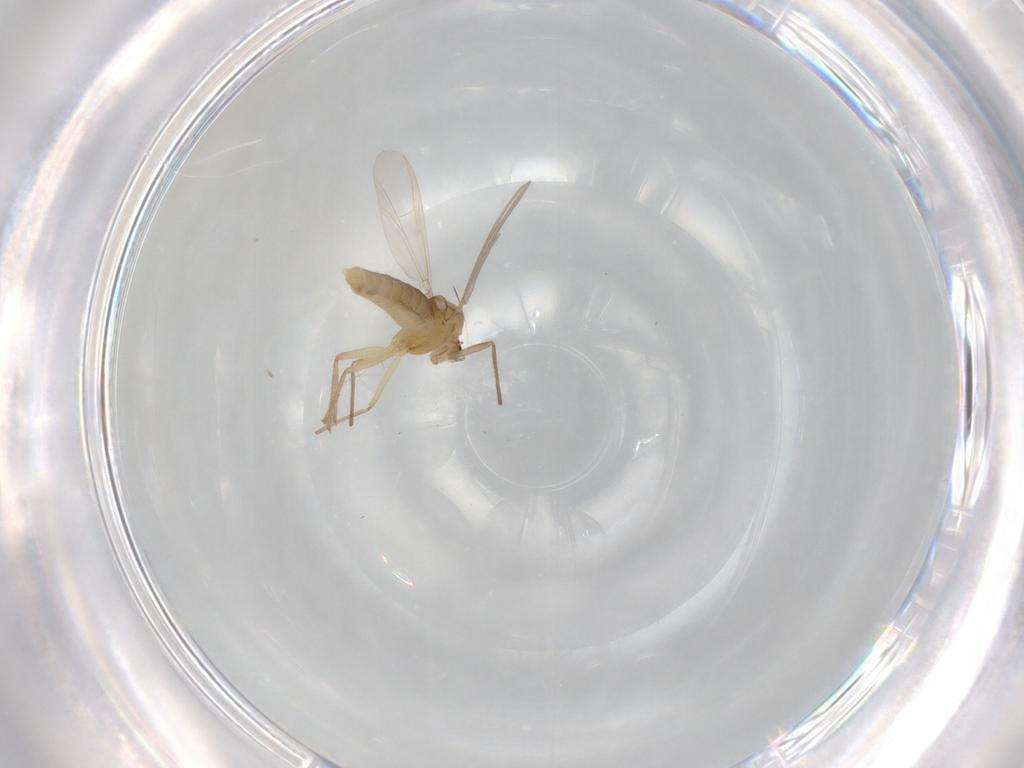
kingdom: Animalia
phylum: Arthropoda
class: Insecta
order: Diptera
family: Chironomidae
